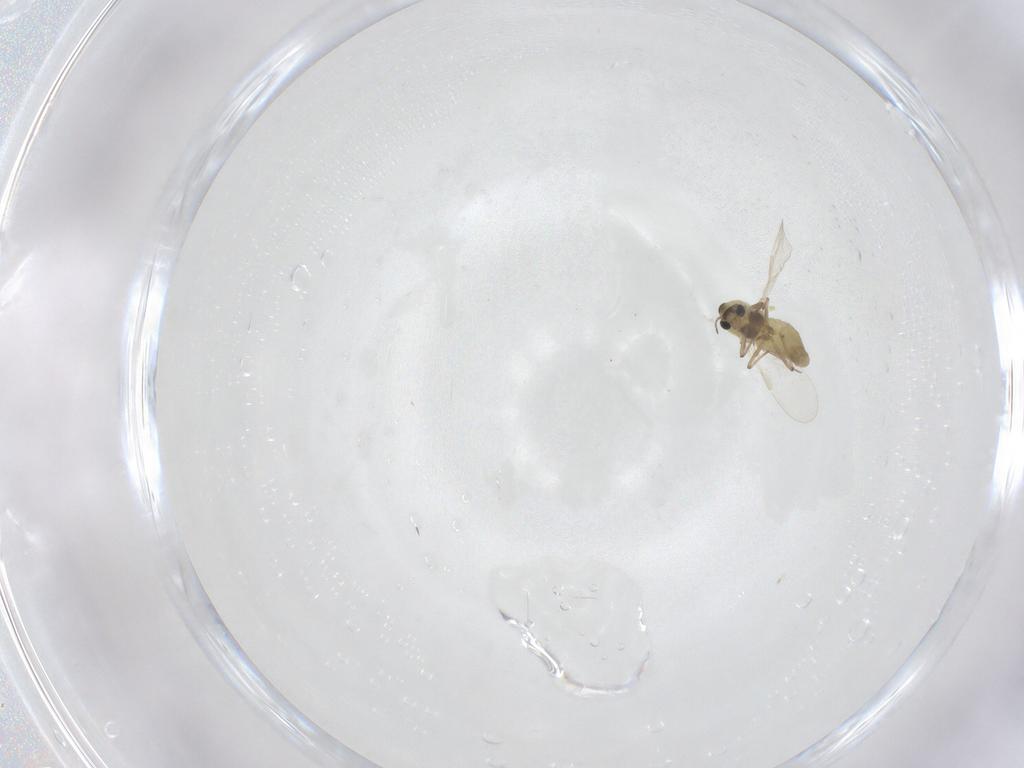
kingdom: Animalia
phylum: Arthropoda
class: Insecta
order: Diptera
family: Chironomidae
